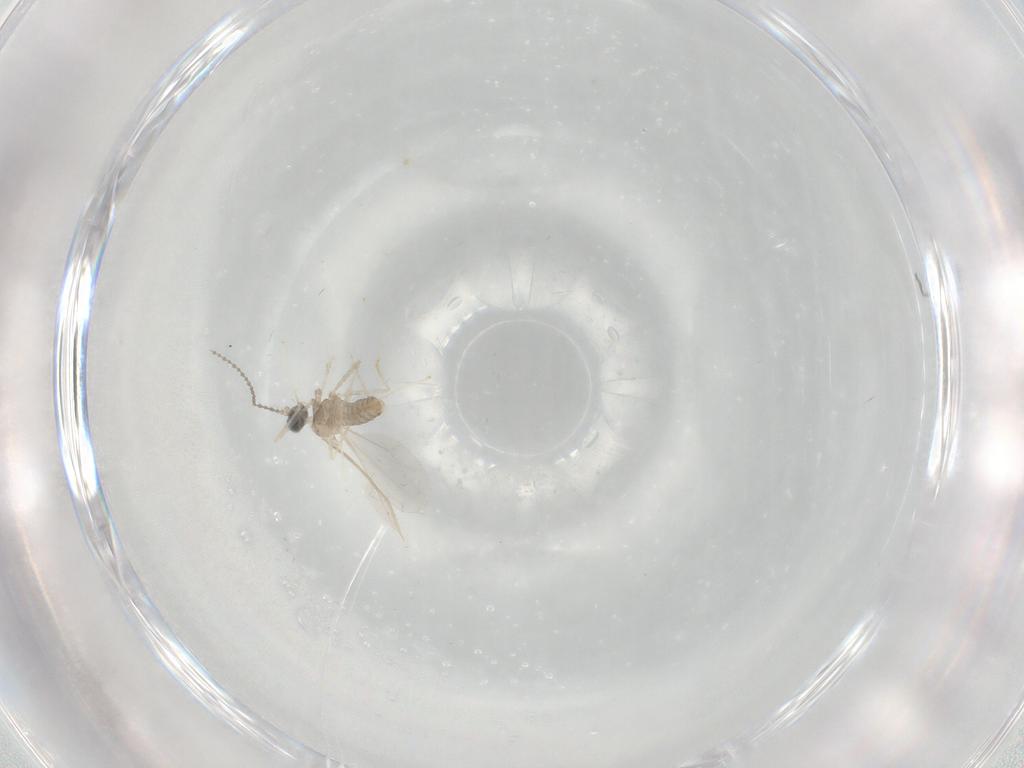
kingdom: Animalia
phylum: Arthropoda
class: Insecta
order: Diptera
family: Cecidomyiidae
